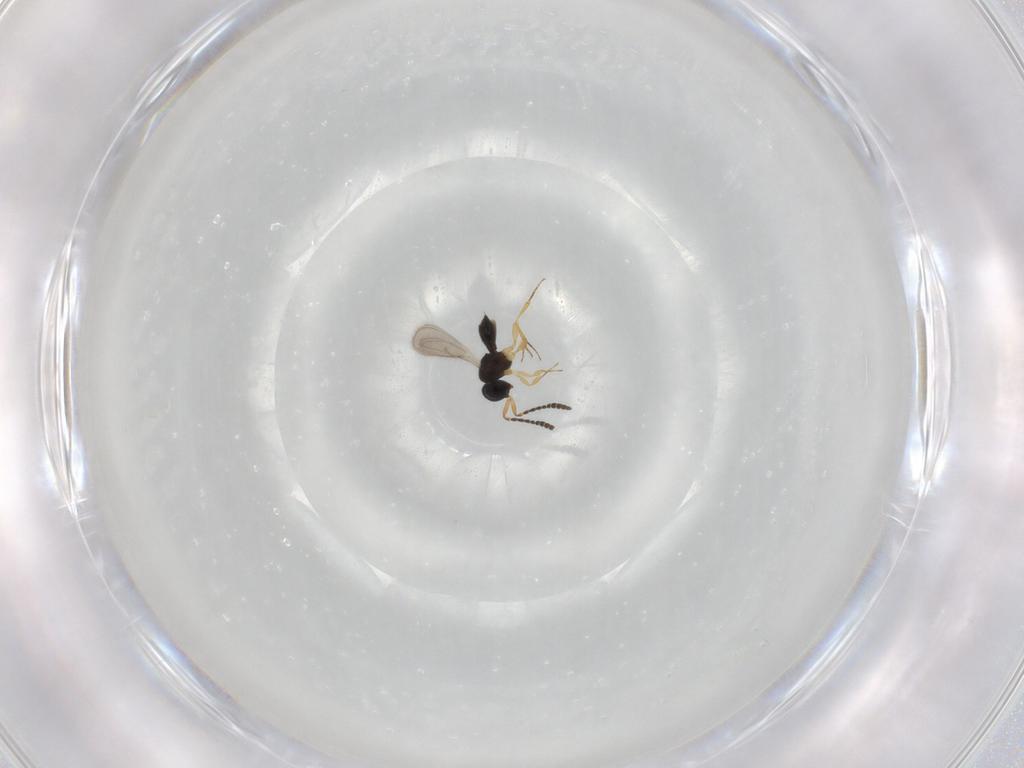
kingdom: Animalia
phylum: Arthropoda
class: Insecta
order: Hymenoptera
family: Scelionidae
